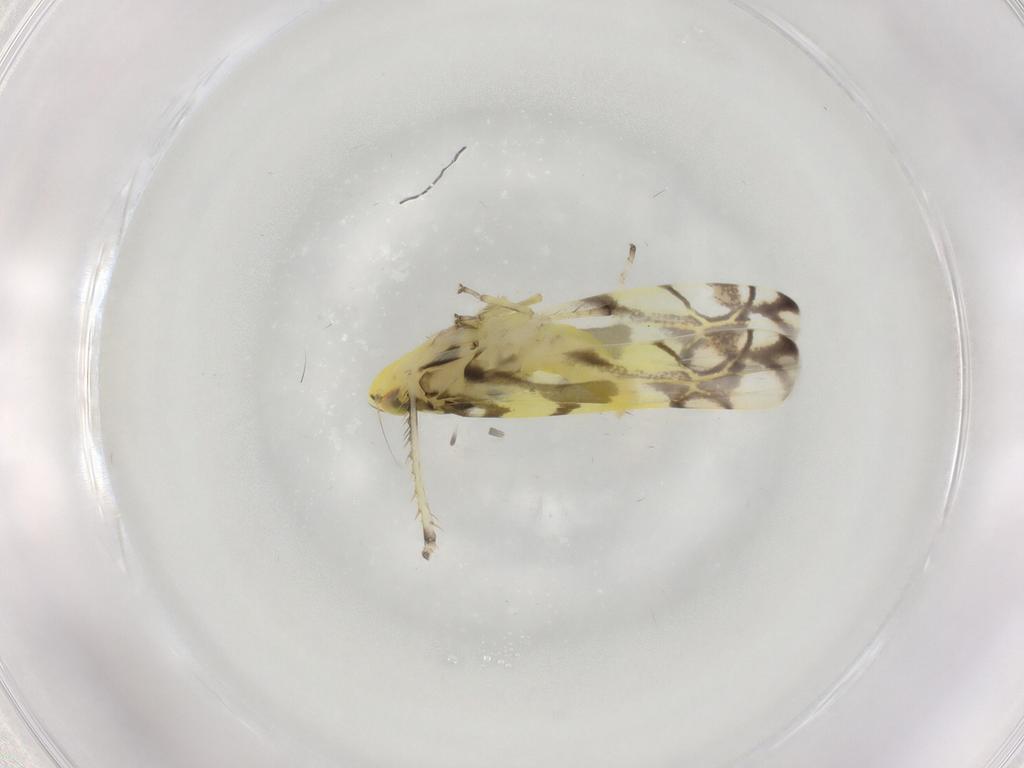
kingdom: Animalia
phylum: Arthropoda
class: Insecta
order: Hemiptera
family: Cicadellidae
